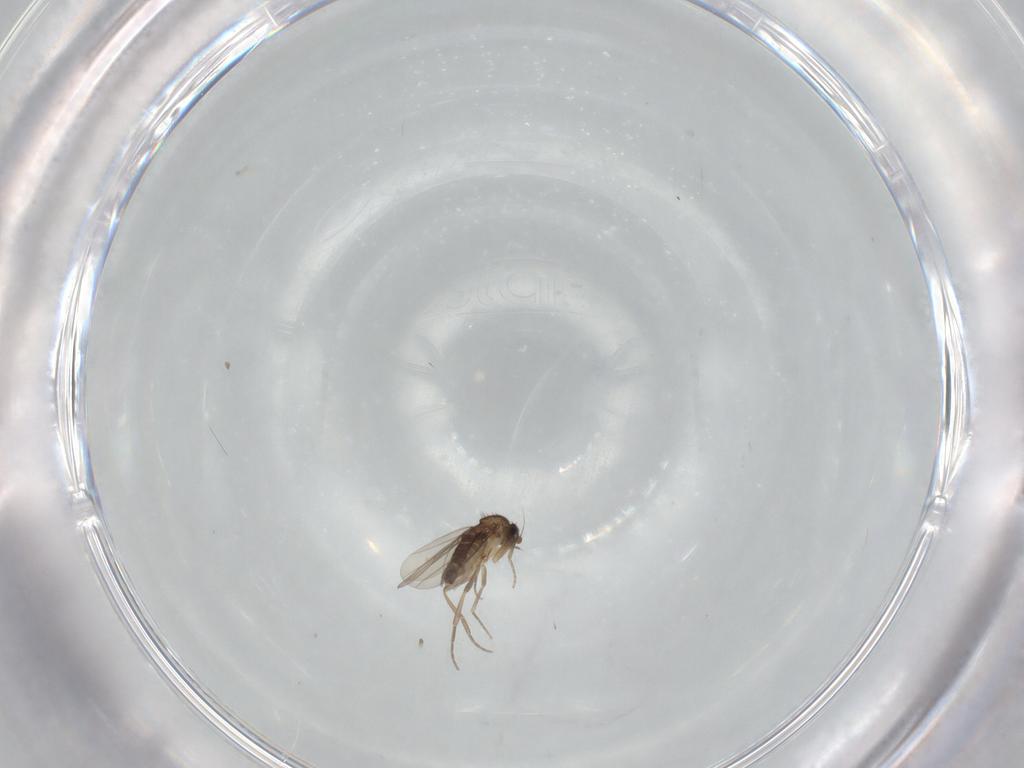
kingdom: Animalia
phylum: Arthropoda
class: Insecta
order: Diptera
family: Phoridae
